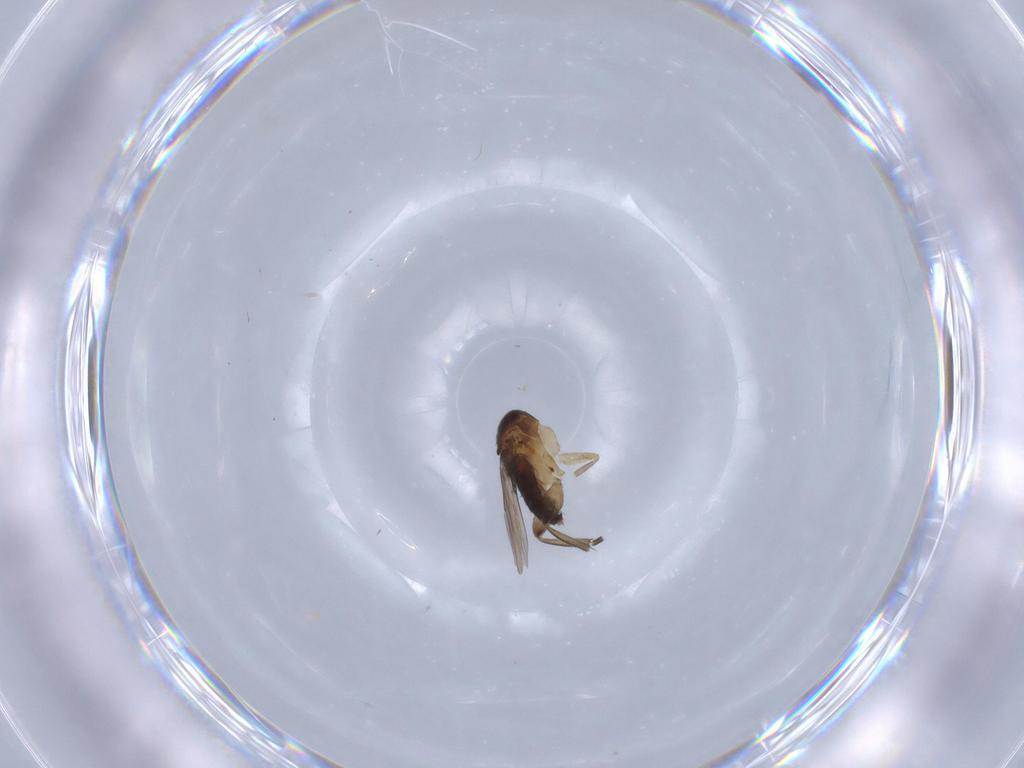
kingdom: Animalia
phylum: Arthropoda
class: Insecta
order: Diptera
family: Phoridae
